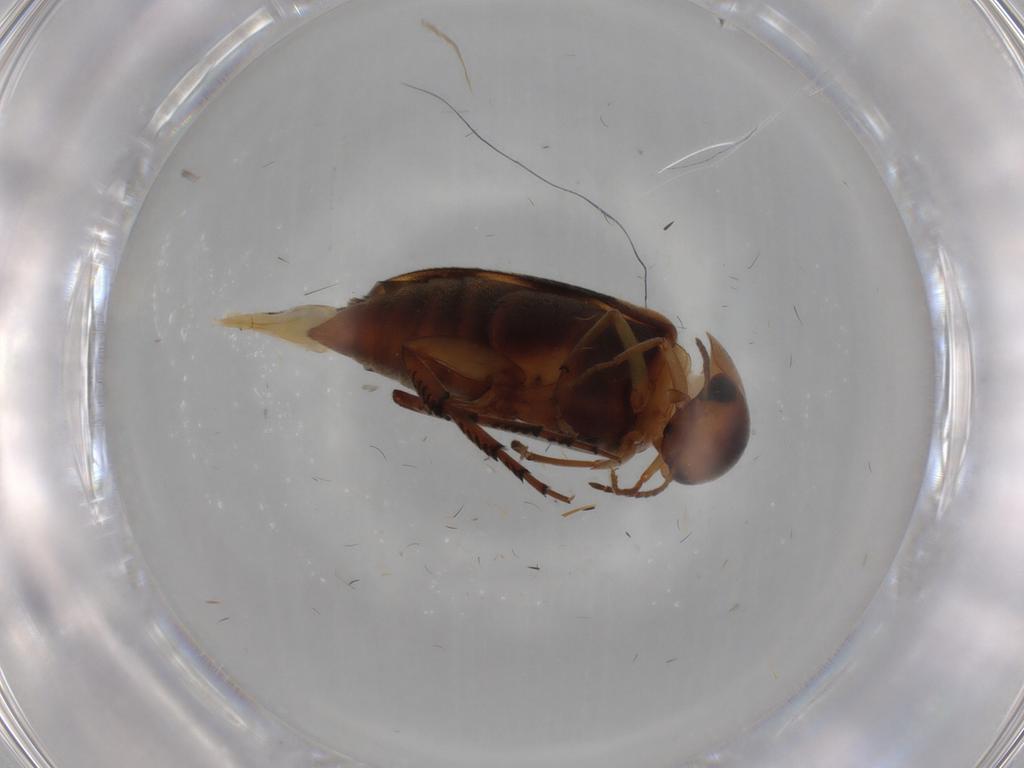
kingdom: Animalia
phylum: Arthropoda
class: Insecta
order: Coleoptera
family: Mordellidae
